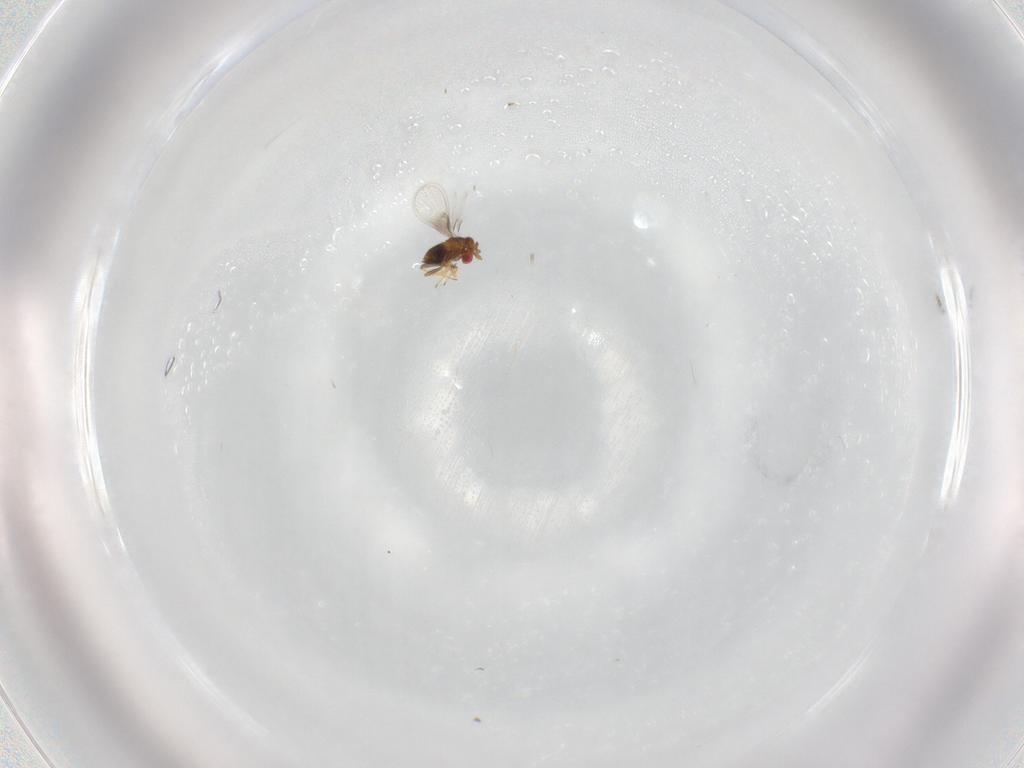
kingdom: Animalia
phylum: Arthropoda
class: Insecta
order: Hymenoptera
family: Trichogrammatidae
